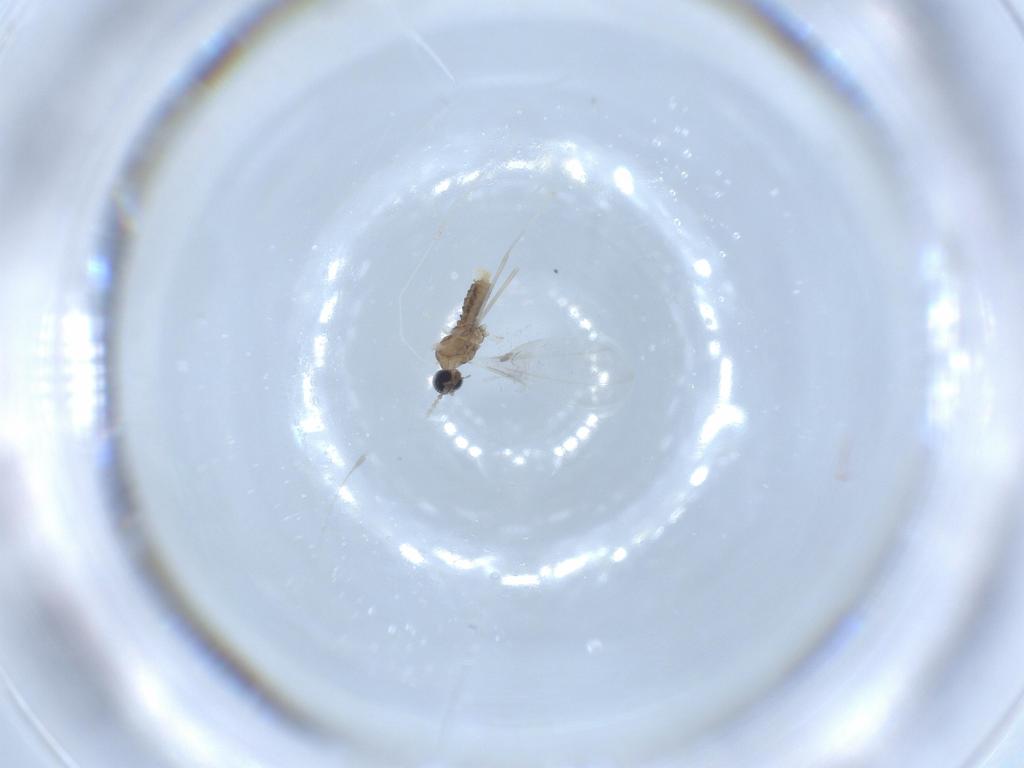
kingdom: Animalia
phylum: Arthropoda
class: Insecta
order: Diptera
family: Cecidomyiidae
